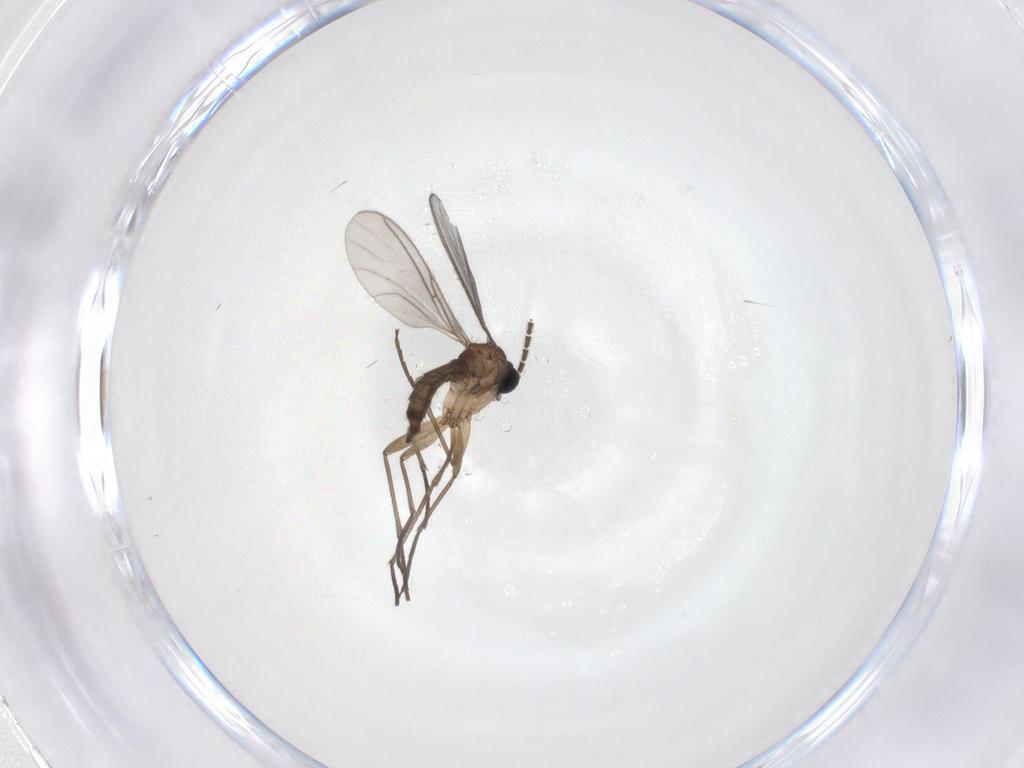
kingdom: Animalia
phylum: Arthropoda
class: Insecta
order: Diptera
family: Sciaridae
